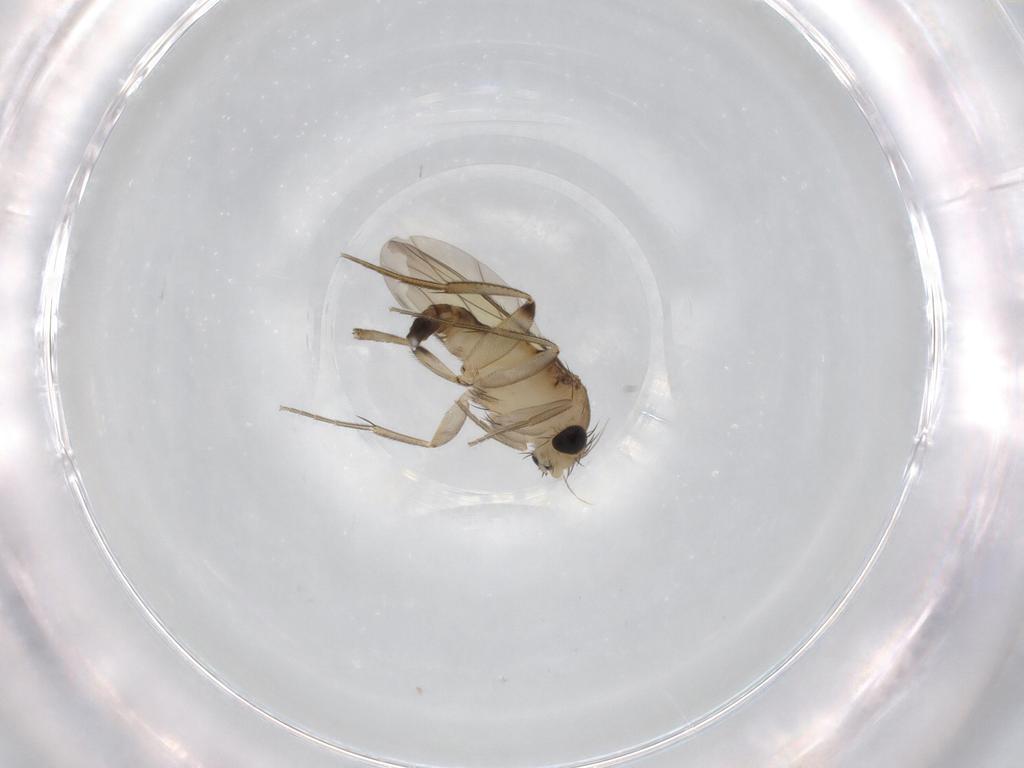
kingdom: Animalia
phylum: Arthropoda
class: Insecta
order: Diptera
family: Phoridae
